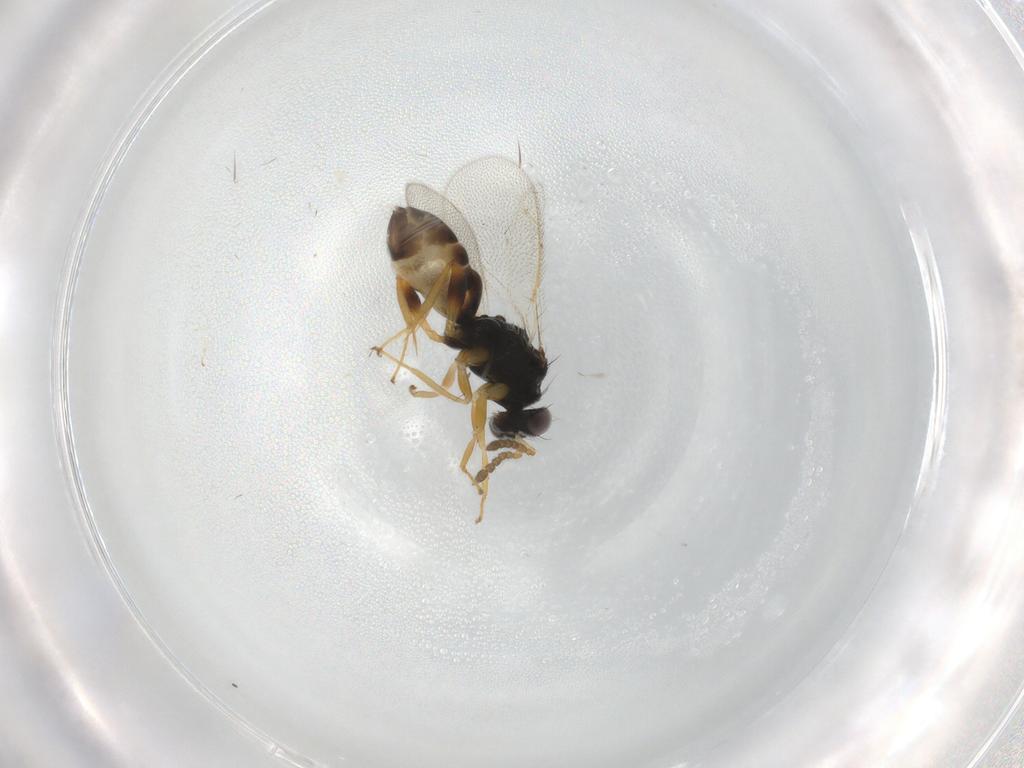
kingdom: Animalia
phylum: Arthropoda
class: Insecta
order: Hymenoptera
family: Eulophidae
